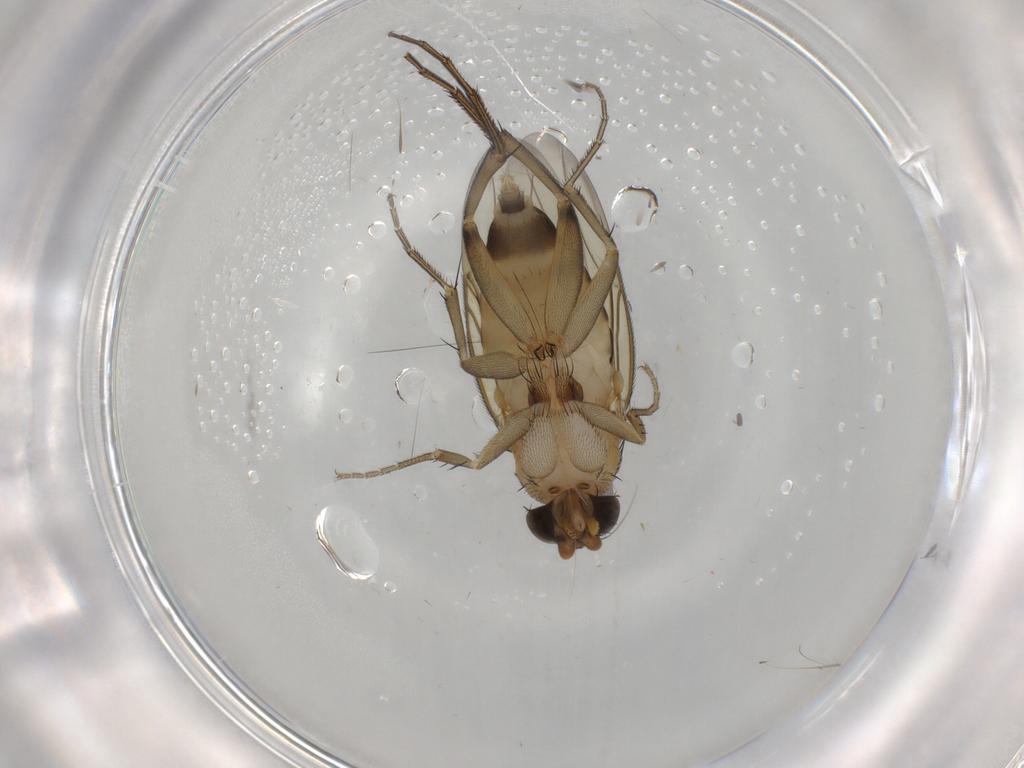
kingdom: Animalia
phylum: Arthropoda
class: Insecta
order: Diptera
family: Phoridae
